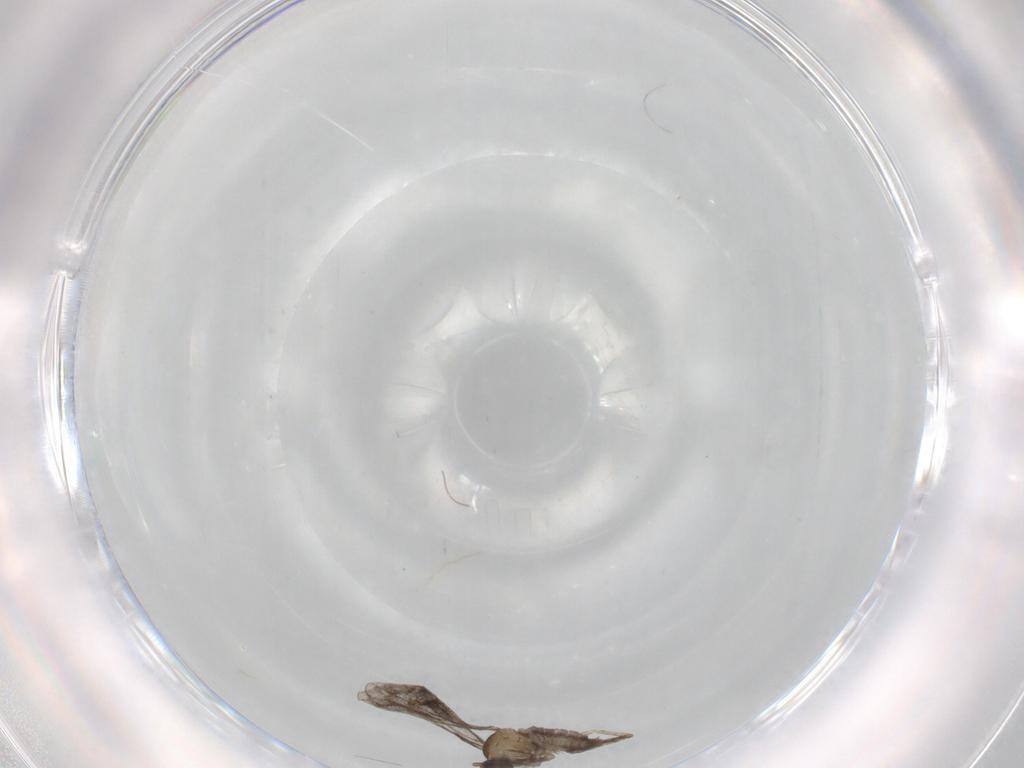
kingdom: Animalia
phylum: Arthropoda
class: Insecta
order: Diptera
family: Cecidomyiidae
